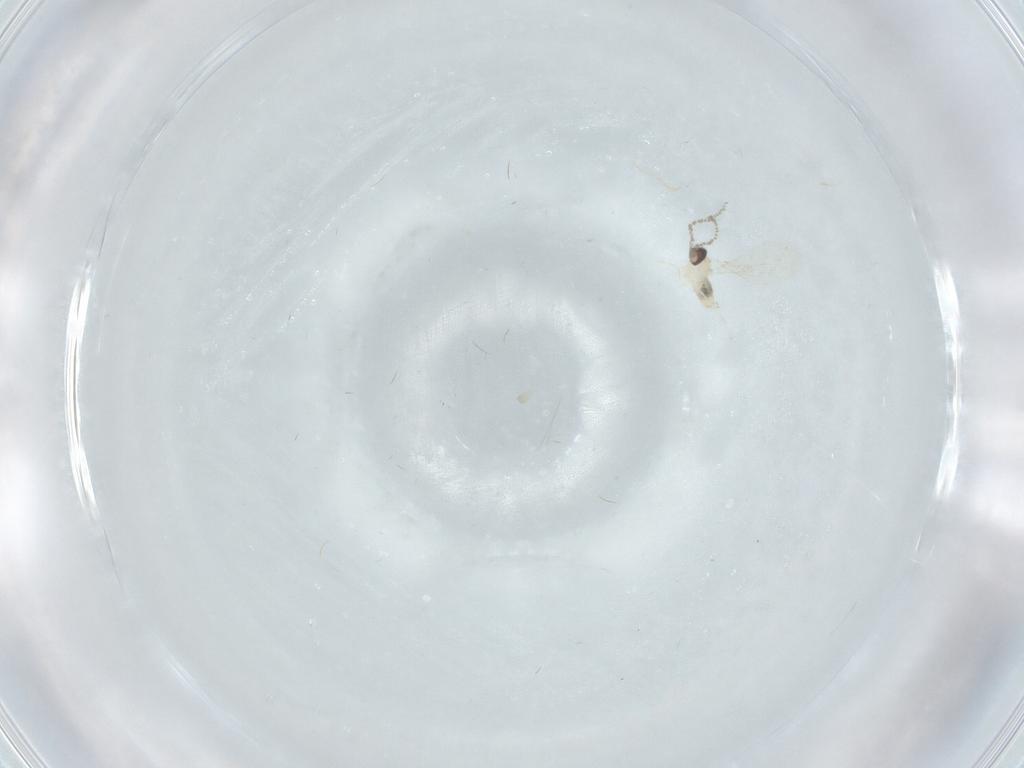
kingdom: Animalia
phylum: Arthropoda
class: Insecta
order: Diptera
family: Cecidomyiidae
